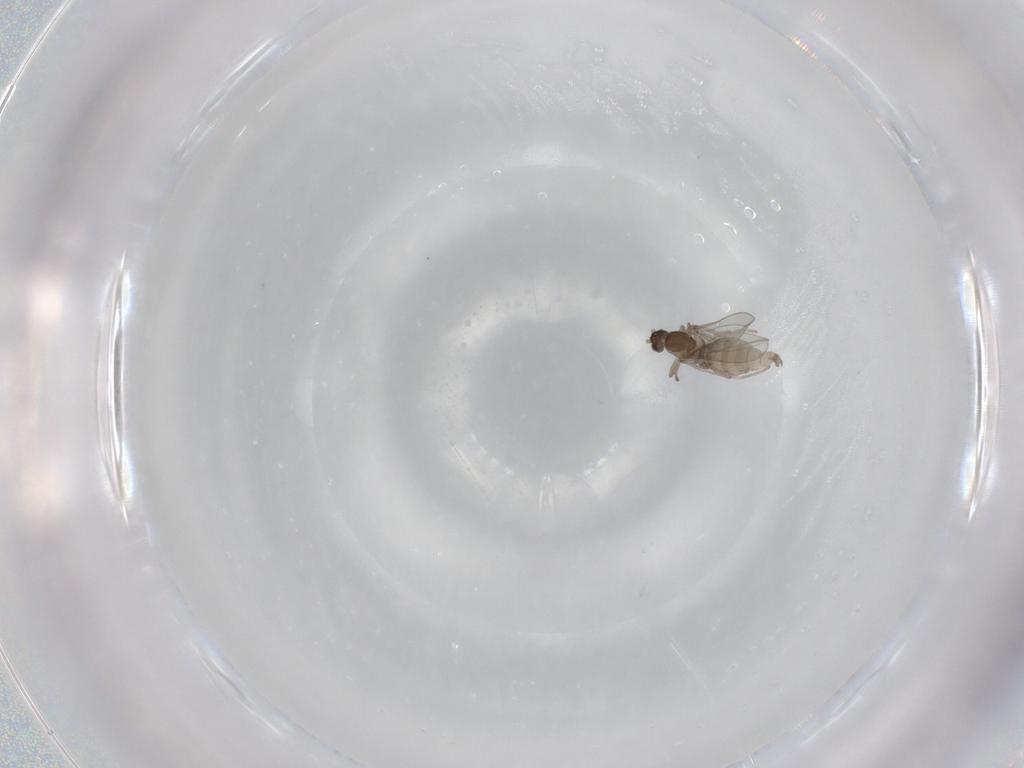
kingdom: Animalia
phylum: Arthropoda
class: Insecta
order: Diptera
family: Cecidomyiidae
